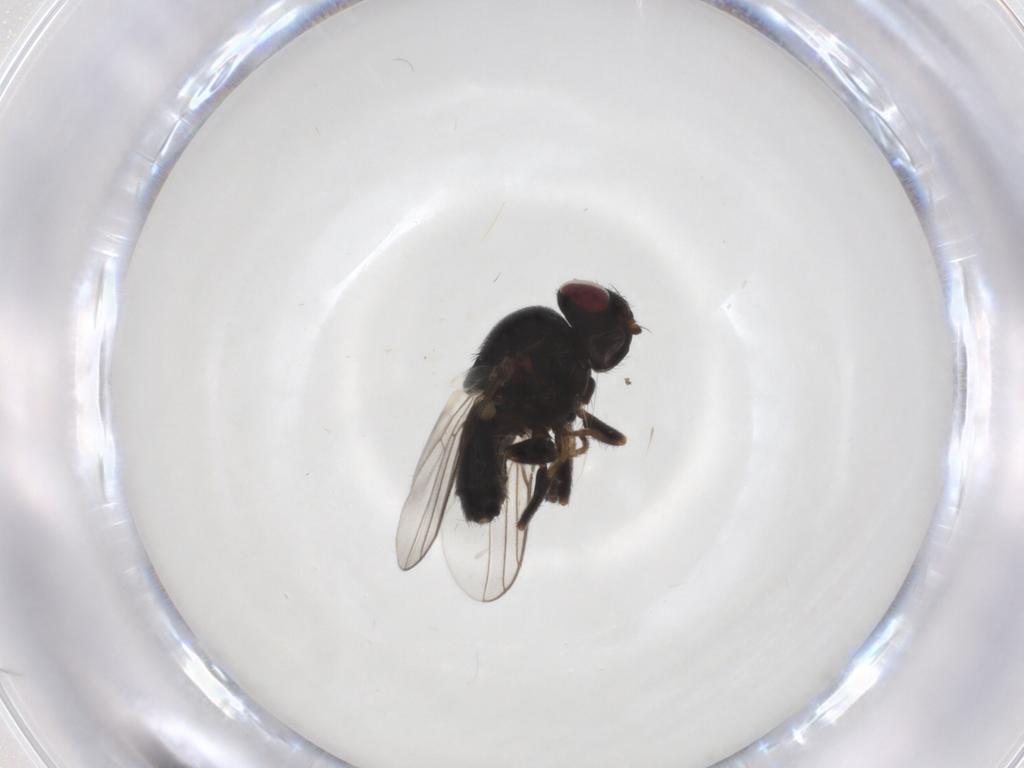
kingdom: Animalia
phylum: Arthropoda
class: Insecta
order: Diptera
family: Chloropidae
